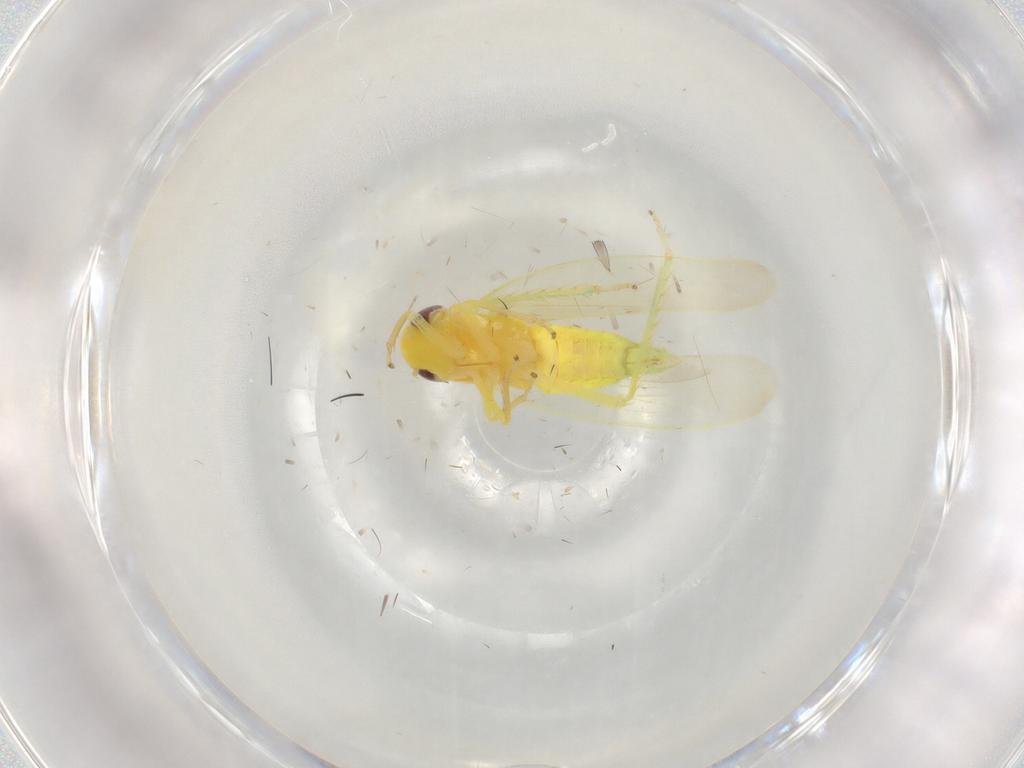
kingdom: Animalia
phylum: Arthropoda
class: Insecta
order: Hemiptera
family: Cicadellidae
